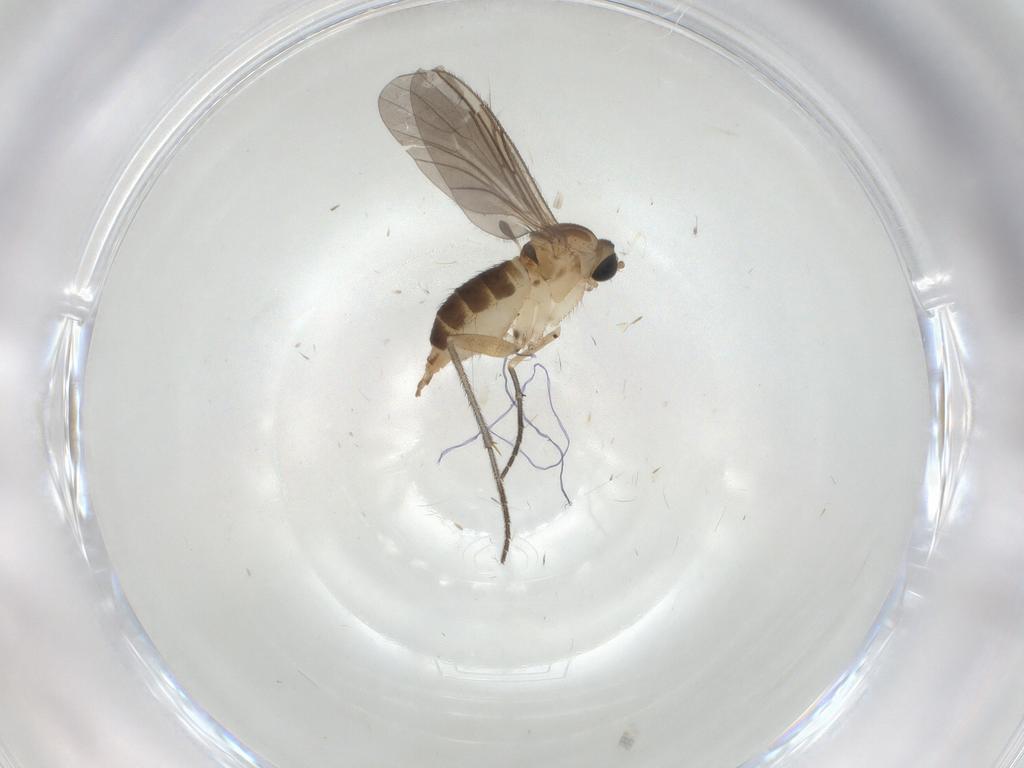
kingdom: Animalia
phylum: Arthropoda
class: Insecta
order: Diptera
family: Sciaridae
